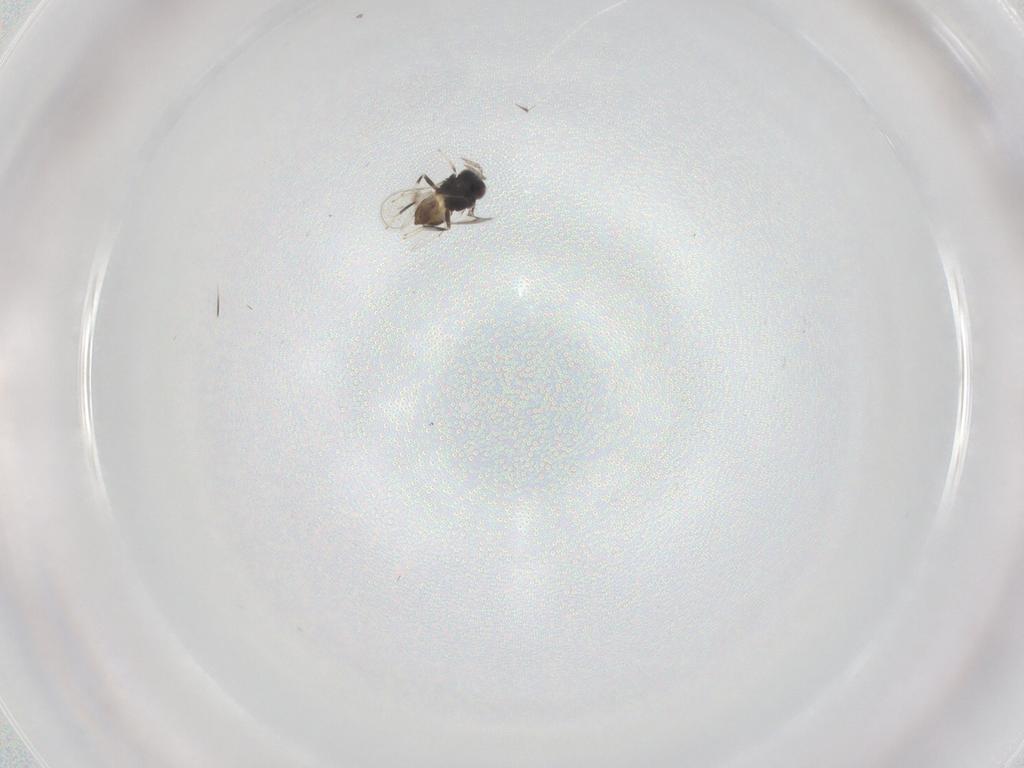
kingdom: Animalia
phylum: Arthropoda
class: Insecta
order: Hymenoptera
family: Eulophidae
